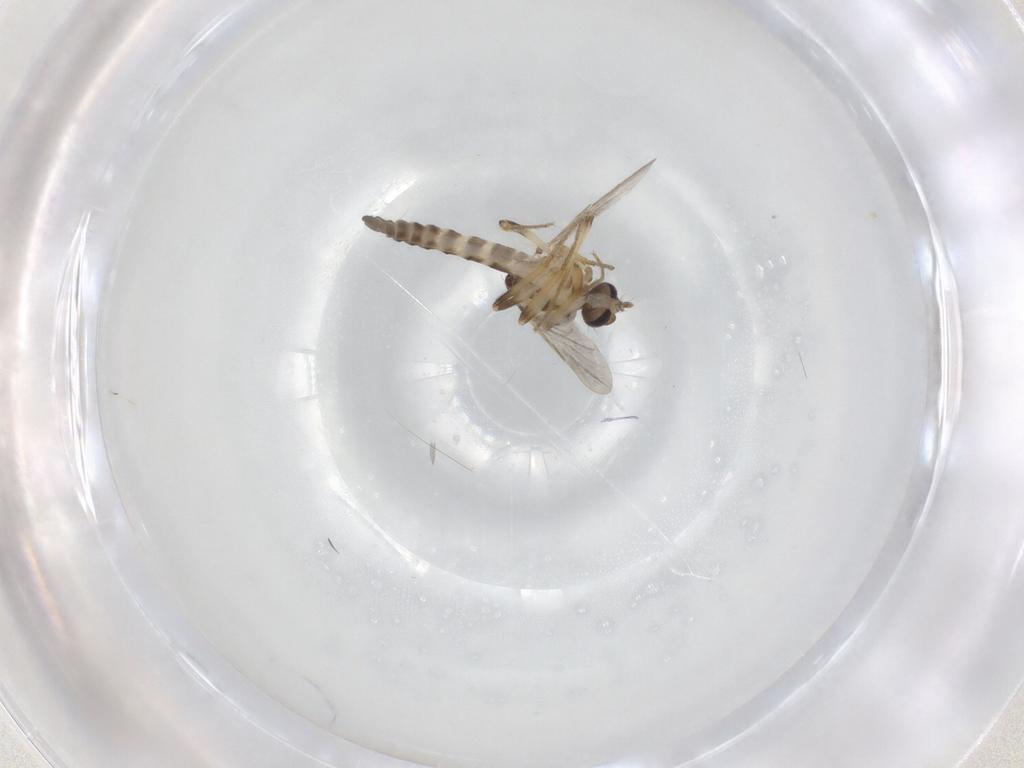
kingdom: Animalia
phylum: Arthropoda
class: Insecta
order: Diptera
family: Ceratopogonidae
